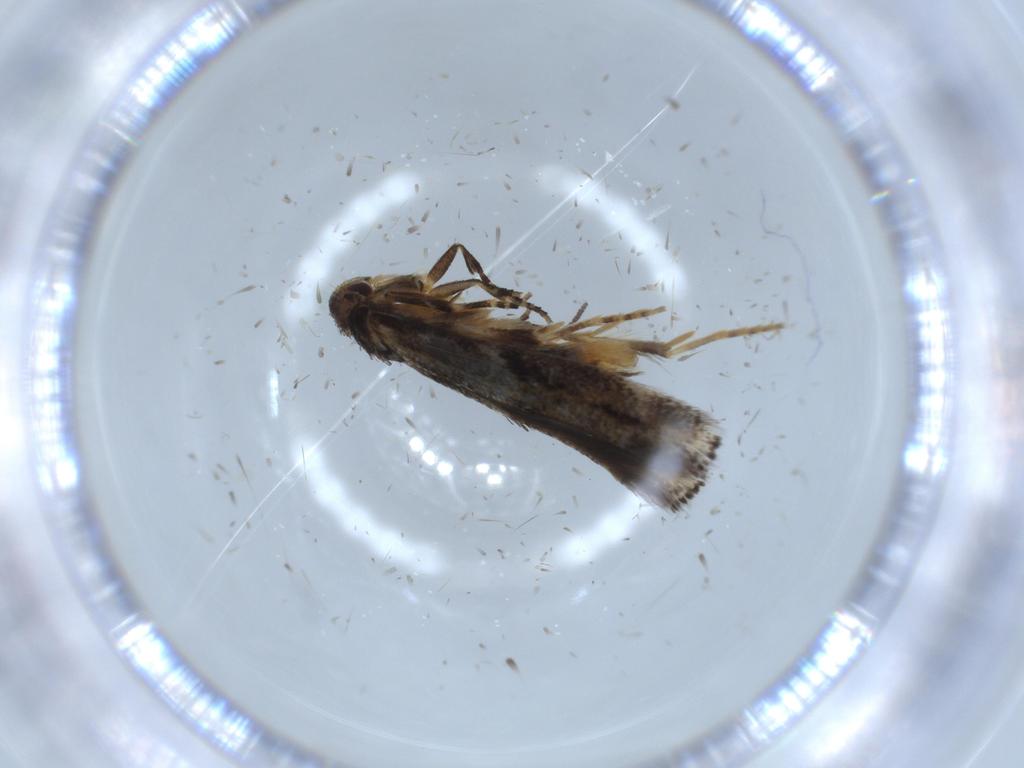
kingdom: Animalia
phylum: Arthropoda
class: Insecta
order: Lepidoptera
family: Elachistidae
